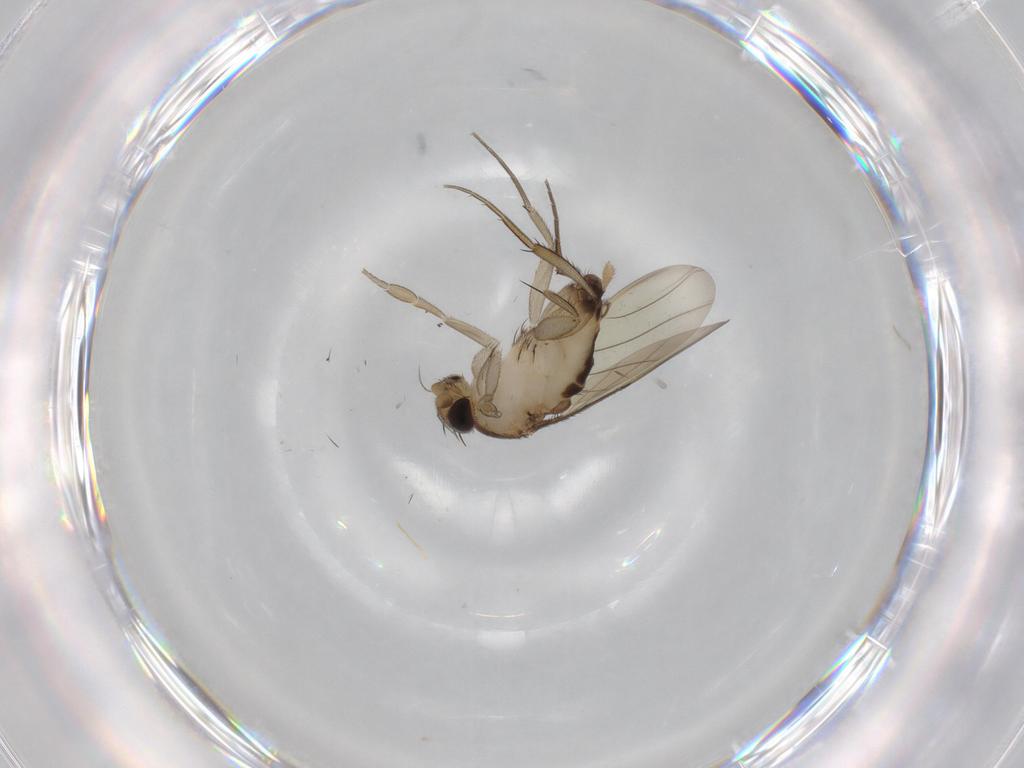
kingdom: Animalia
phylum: Arthropoda
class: Insecta
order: Diptera
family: Phoridae
